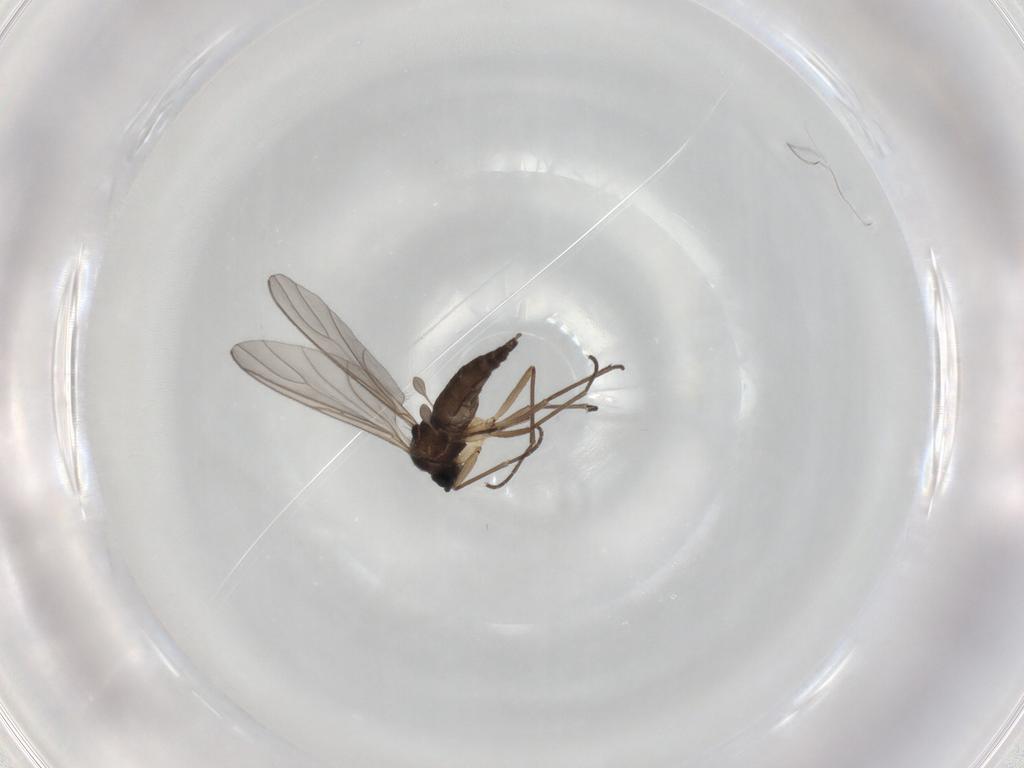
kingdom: Animalia
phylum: Arthropoda
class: Insecta
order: Diptera
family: Sciaridae
